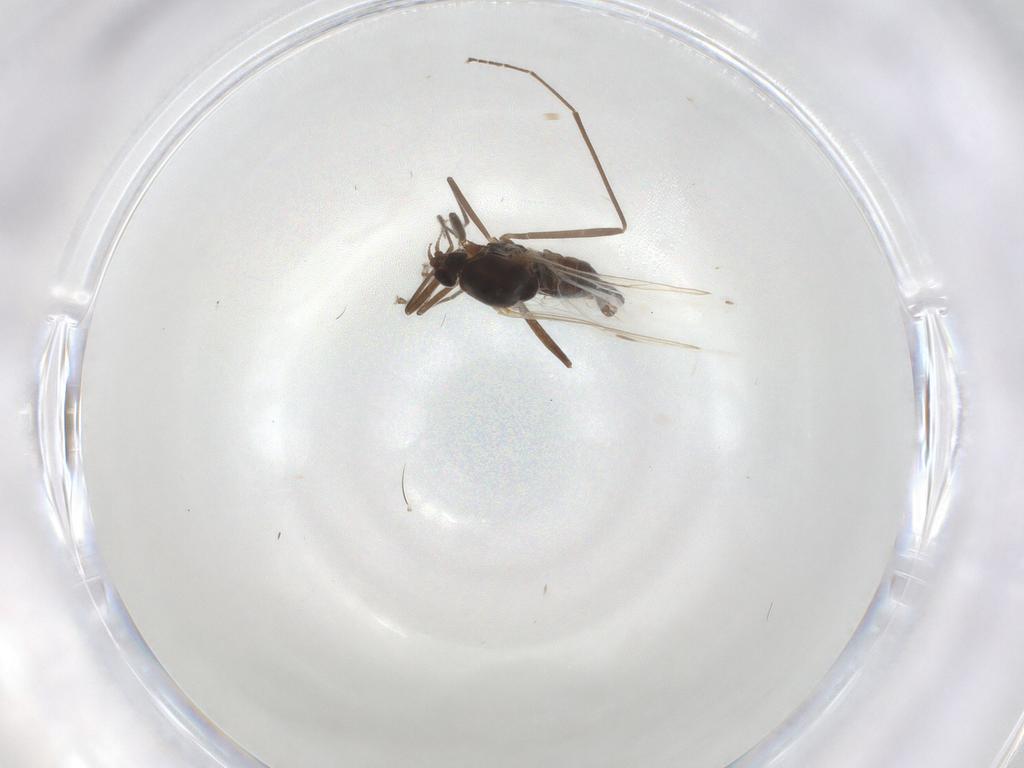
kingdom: Animalia
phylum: Arthropoda
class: Insecta
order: Diptera
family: Cecidomyiidae
